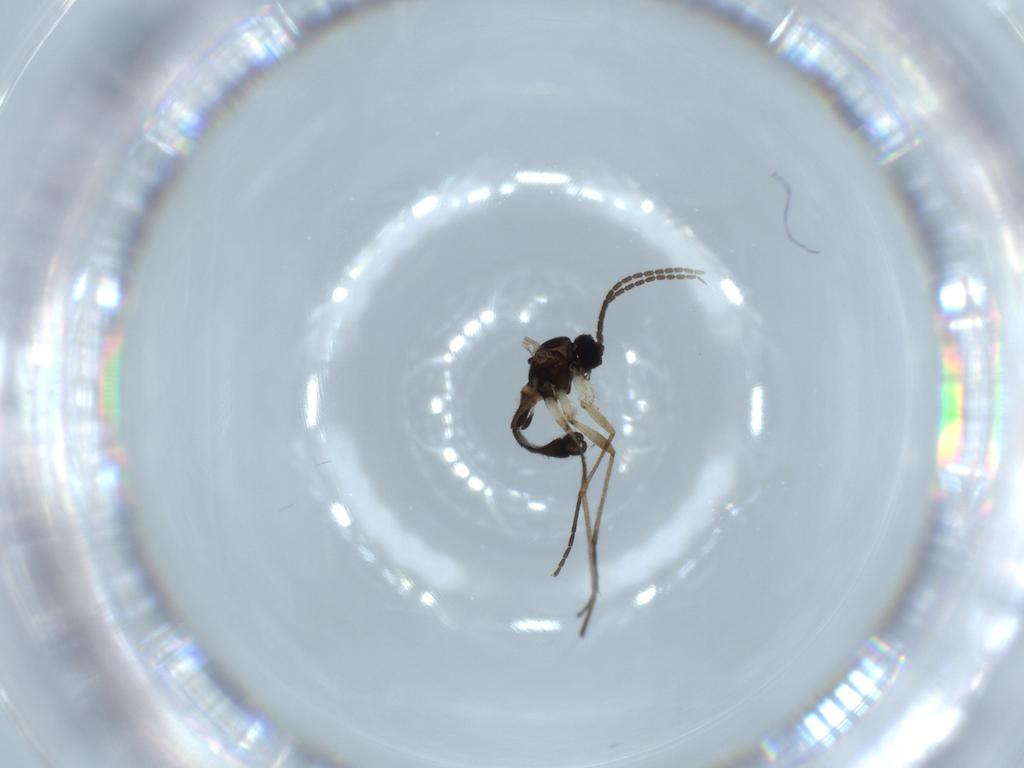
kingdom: Animalia
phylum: Arthropoda
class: Insecta
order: Diptera
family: Sciaridae
